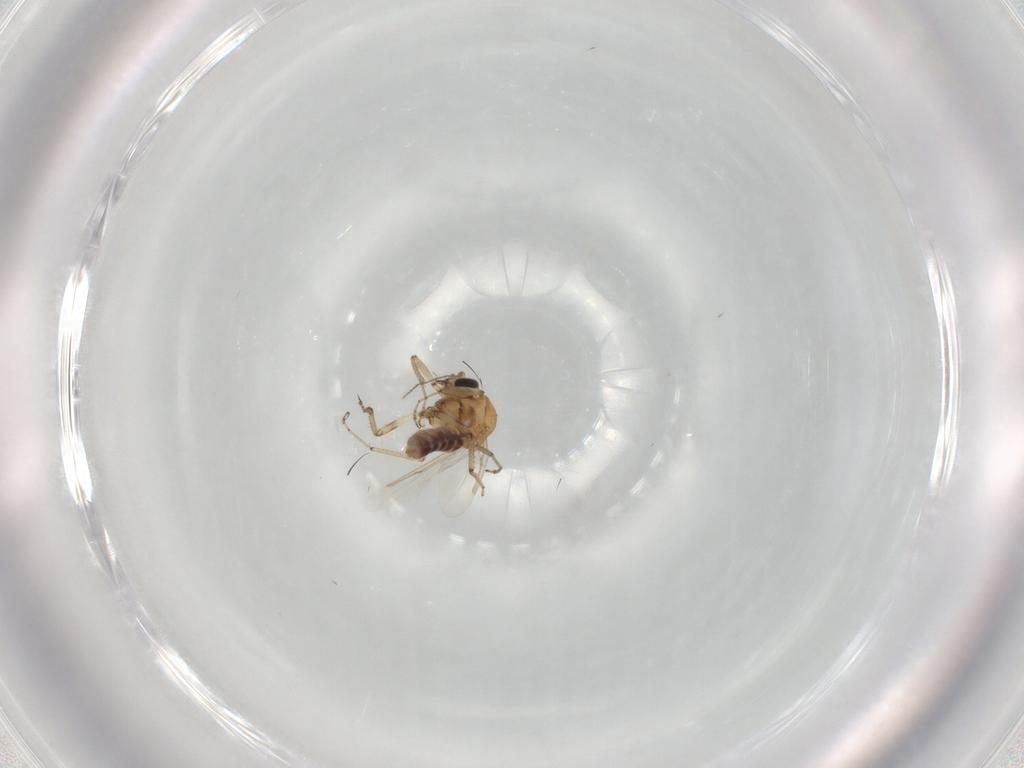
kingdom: Animalia
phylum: Arthropoda
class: Insecta
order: Diptera
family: Ceratopogonidae
